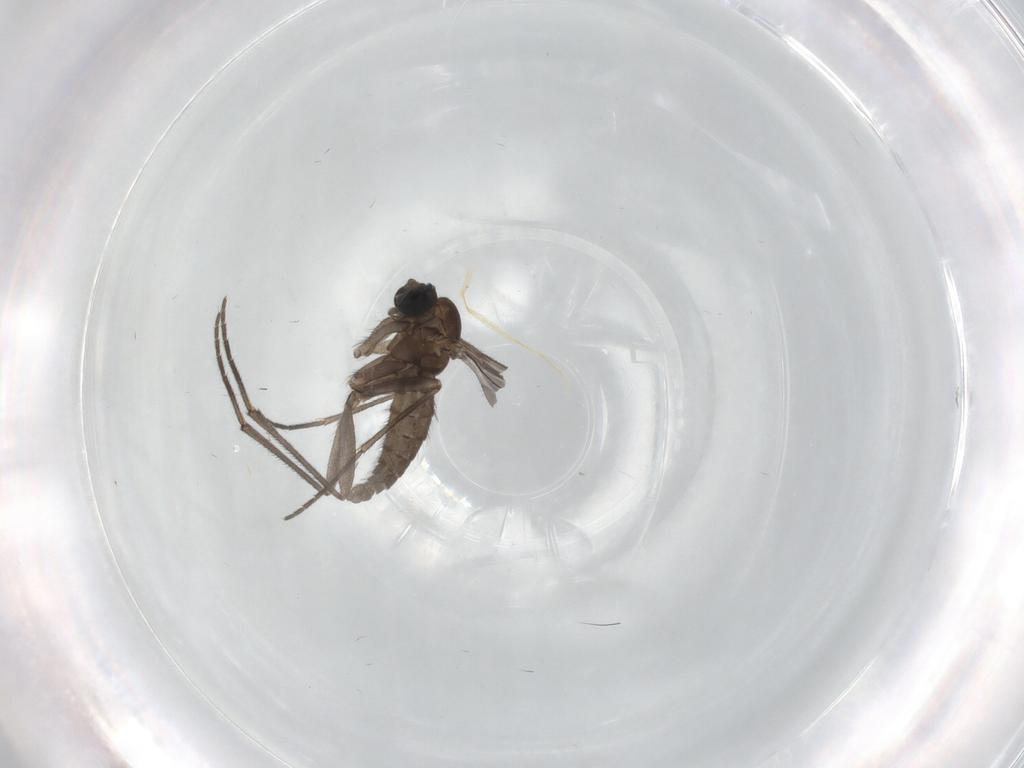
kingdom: Animalia
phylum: Arthropoda
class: Insecta
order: Diptera
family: Sciaridae
